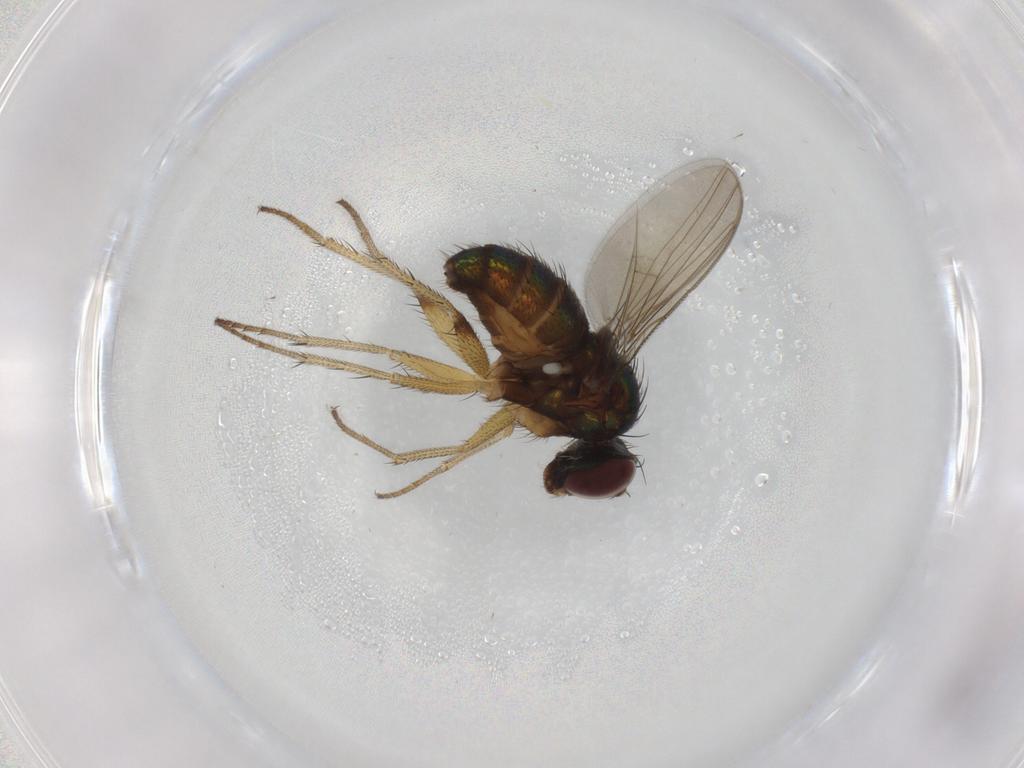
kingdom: Animalia
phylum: Arthropoda
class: Insecta
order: Diptera
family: Dolichopodidae
